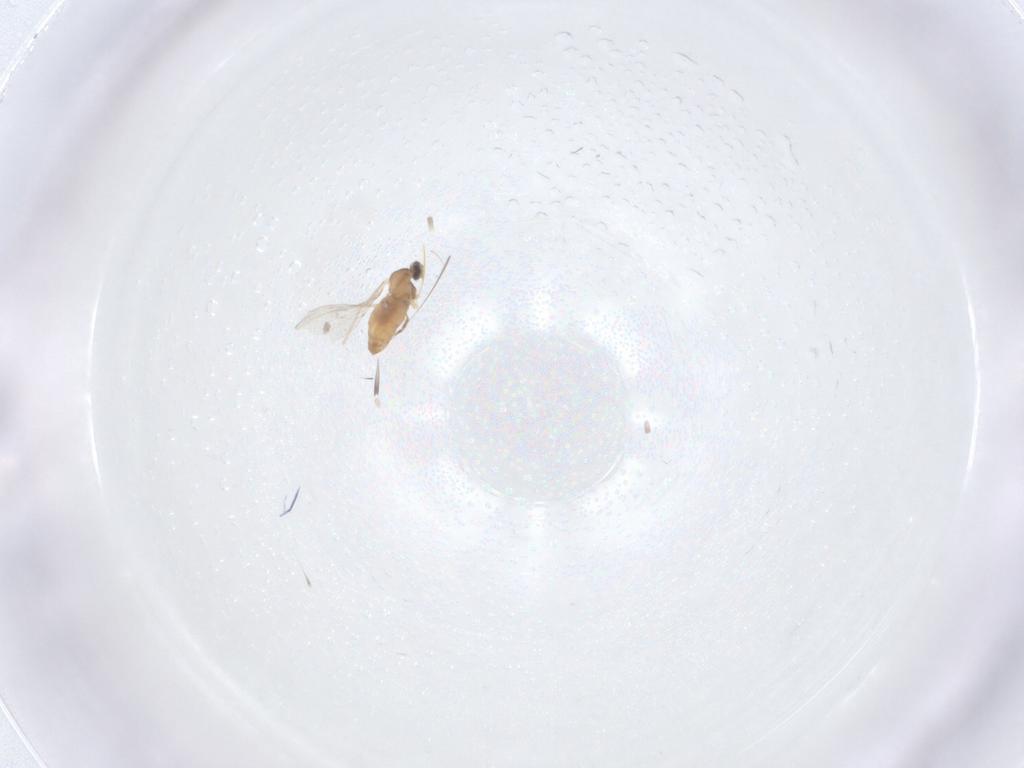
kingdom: Animalia
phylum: Arthropoda
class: Insecta
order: Diptera
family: Cecidomyiidae
